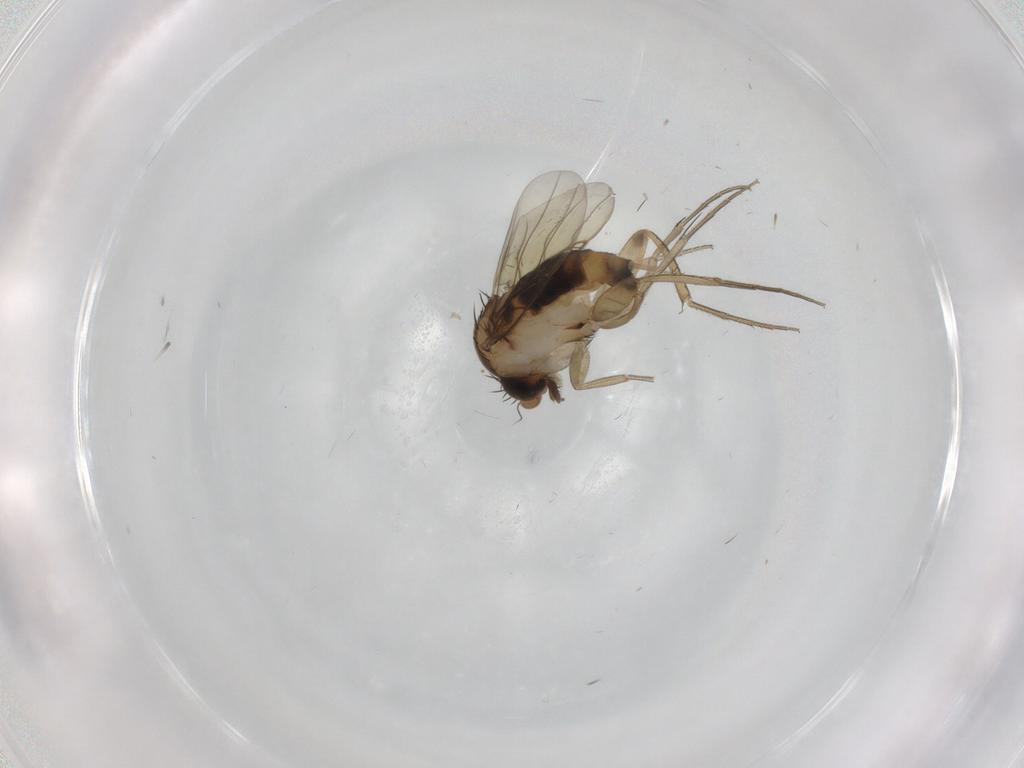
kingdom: Animalia
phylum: Arthropoda
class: Insecta
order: Diptera
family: Phoridae
